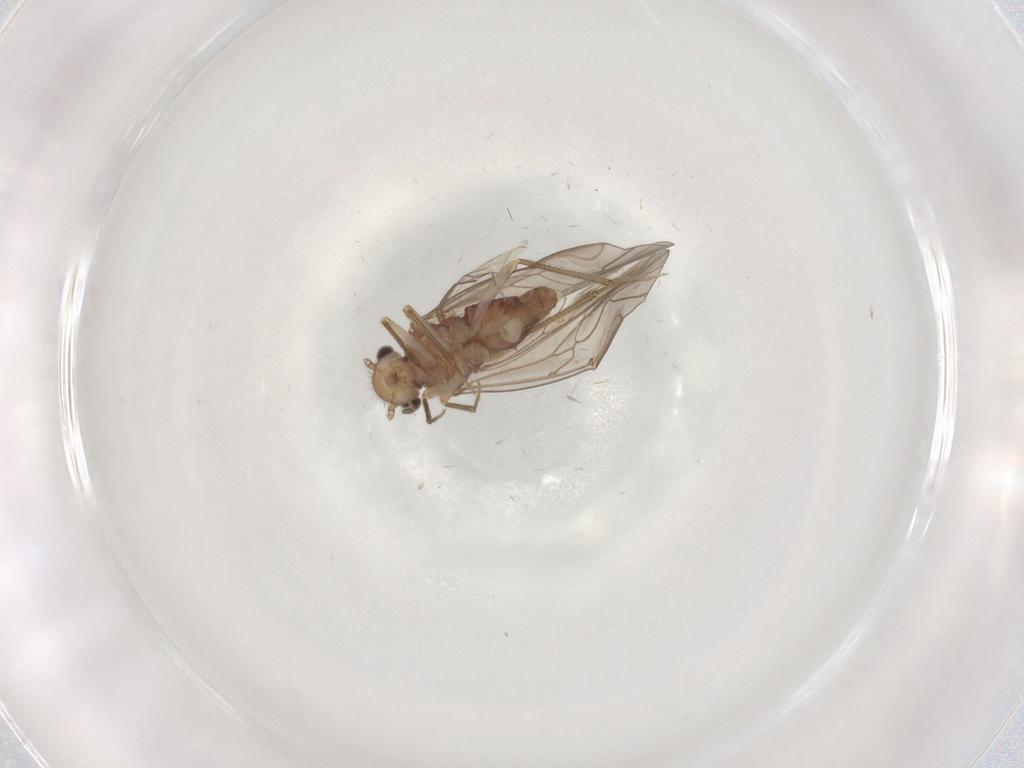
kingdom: Animalia
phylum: Arthropoda
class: Insecta
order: Psocodea
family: Caeciliusidae
